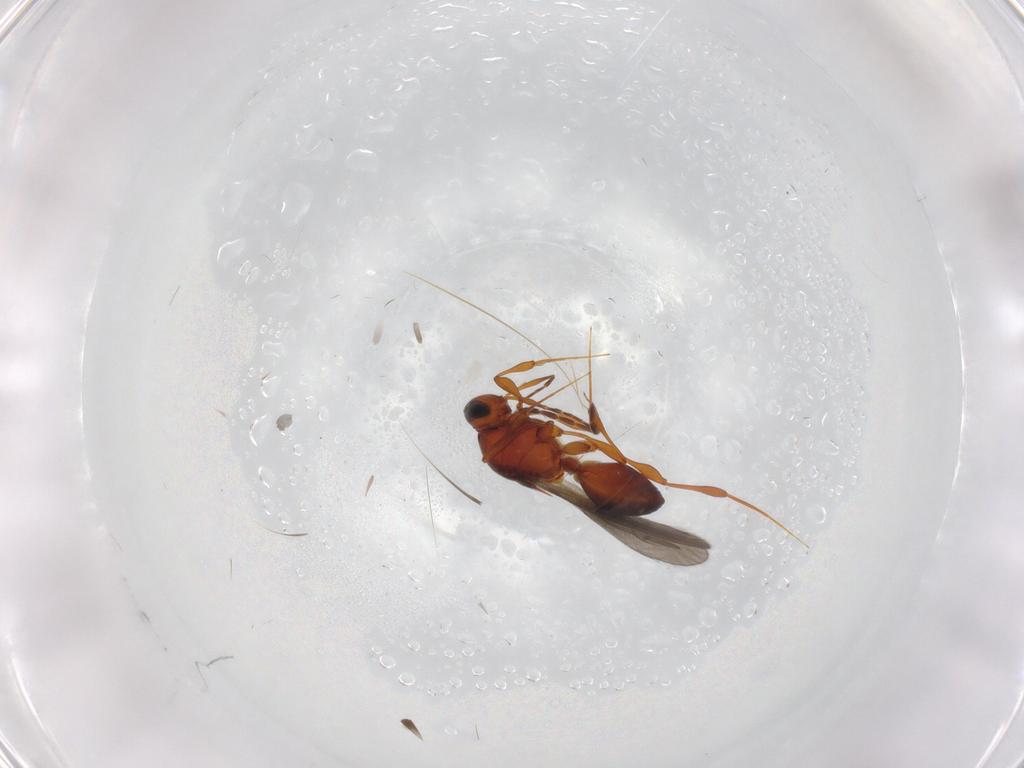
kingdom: Animalia
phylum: Arthropoda
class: Insecta
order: Hymenoptera
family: Platygastridae
